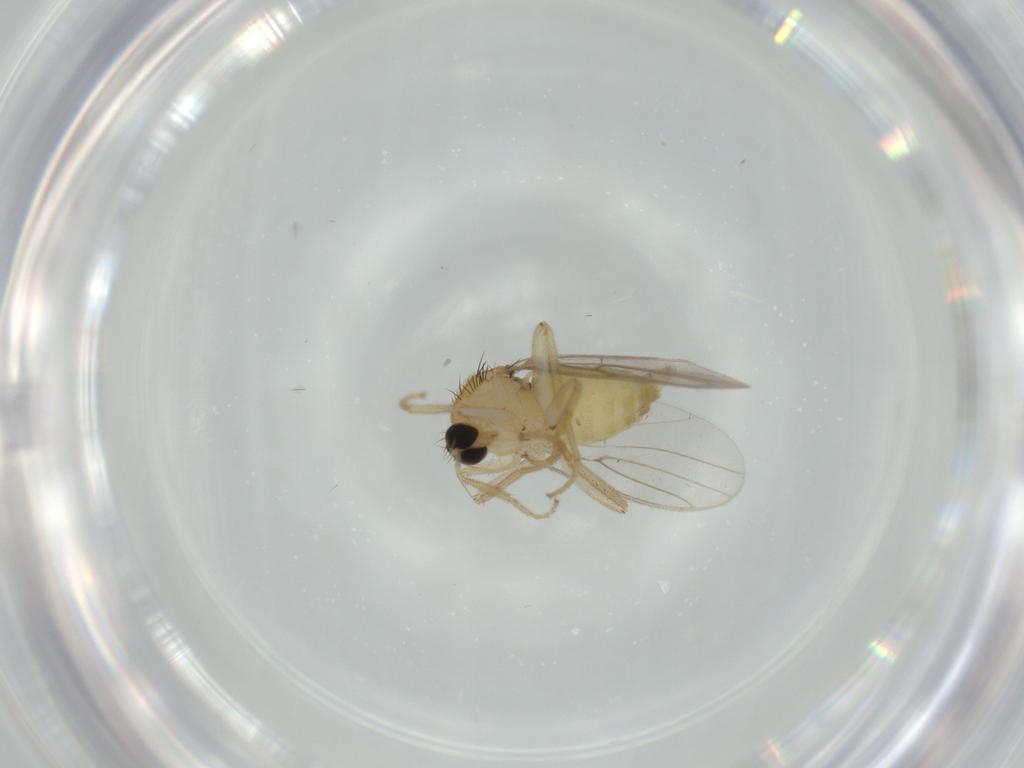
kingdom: Animalia
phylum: Arthropoda
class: Insecta
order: Diptera
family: Hybotidae
